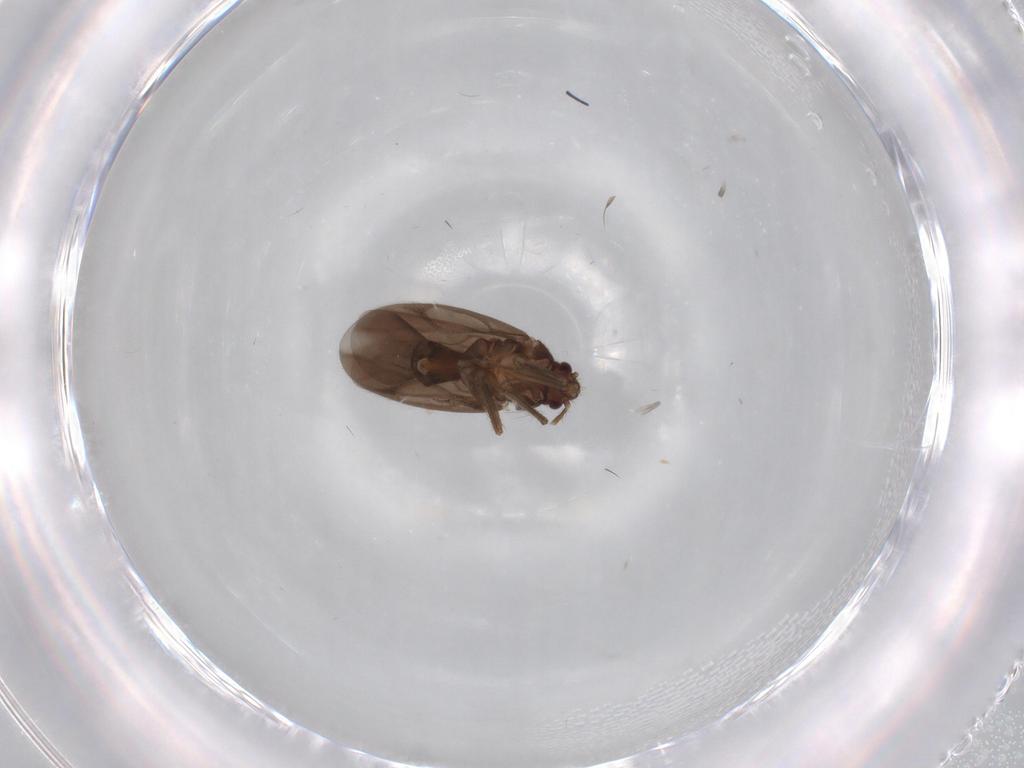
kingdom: Animalia
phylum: Arthropoda
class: Insecta
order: Hemiptera
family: Ceratocombidae
